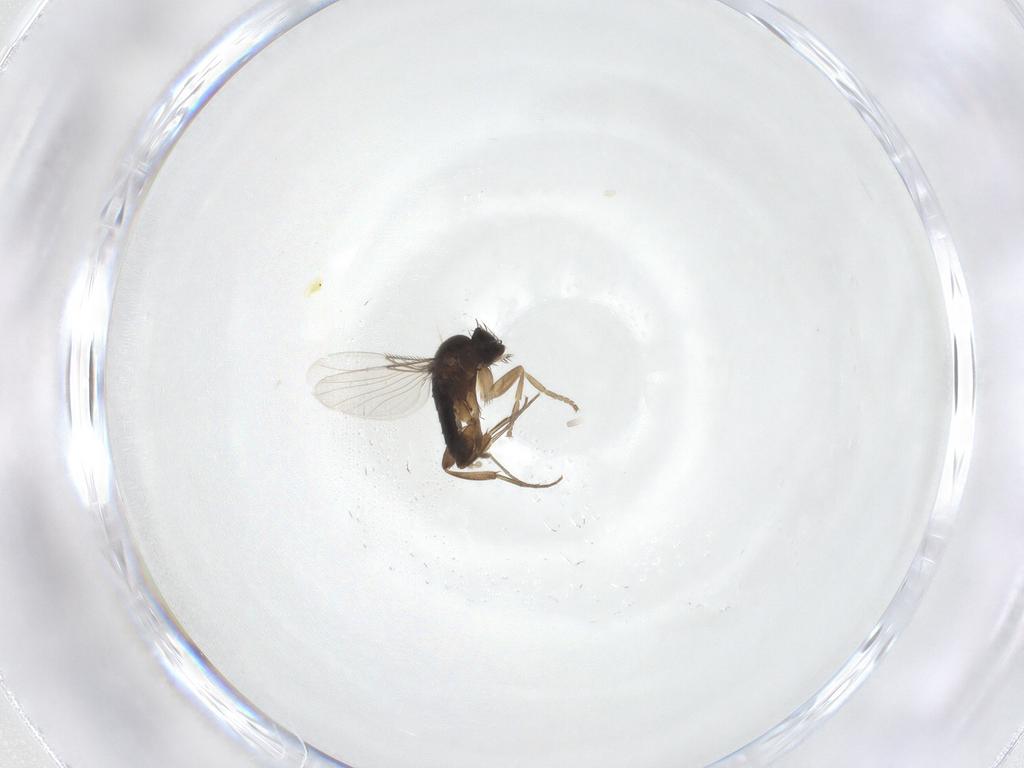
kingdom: Animalia
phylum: Arthropoda
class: Insecta
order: Diptera
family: Phoridae
